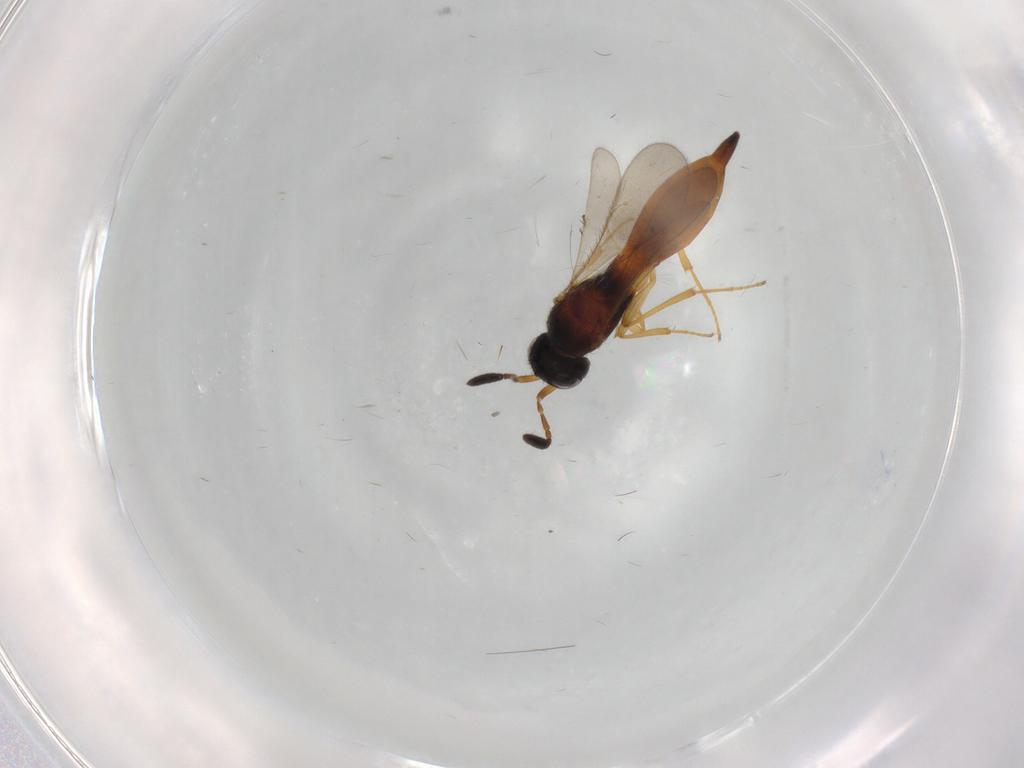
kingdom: Animalia
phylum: Arthropoda
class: Insecta
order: Hymenoptera
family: Scelionidae
